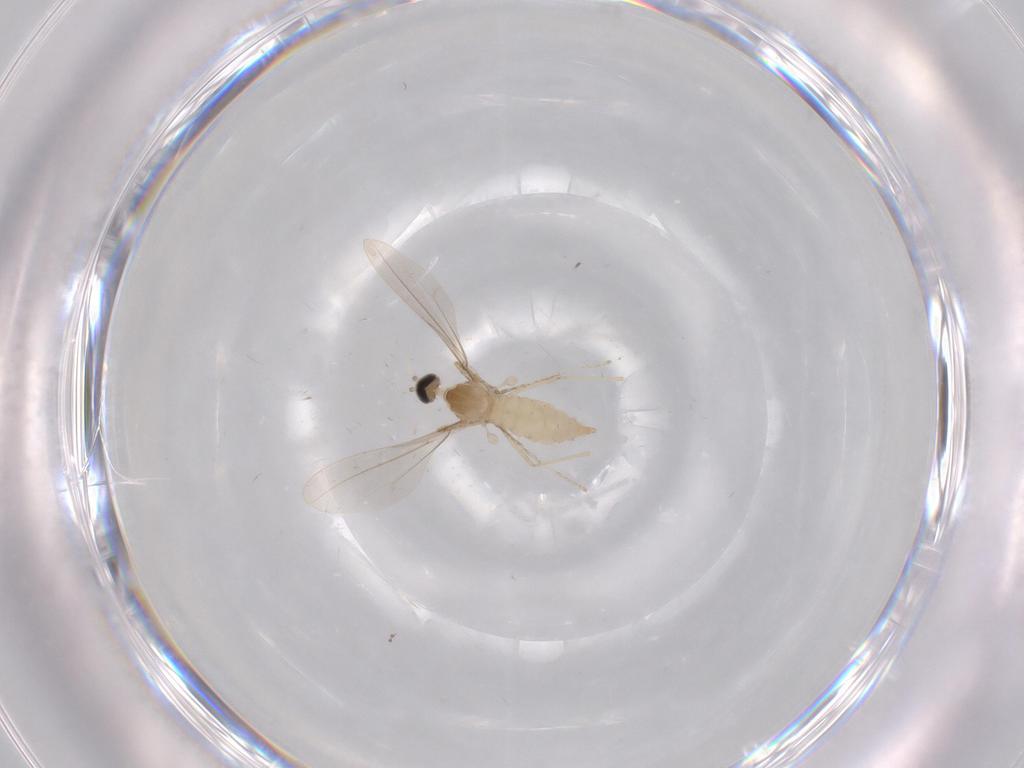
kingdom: Animalia
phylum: Arthropoda
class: Insecta
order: Diptera
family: Cecidomyiidae
